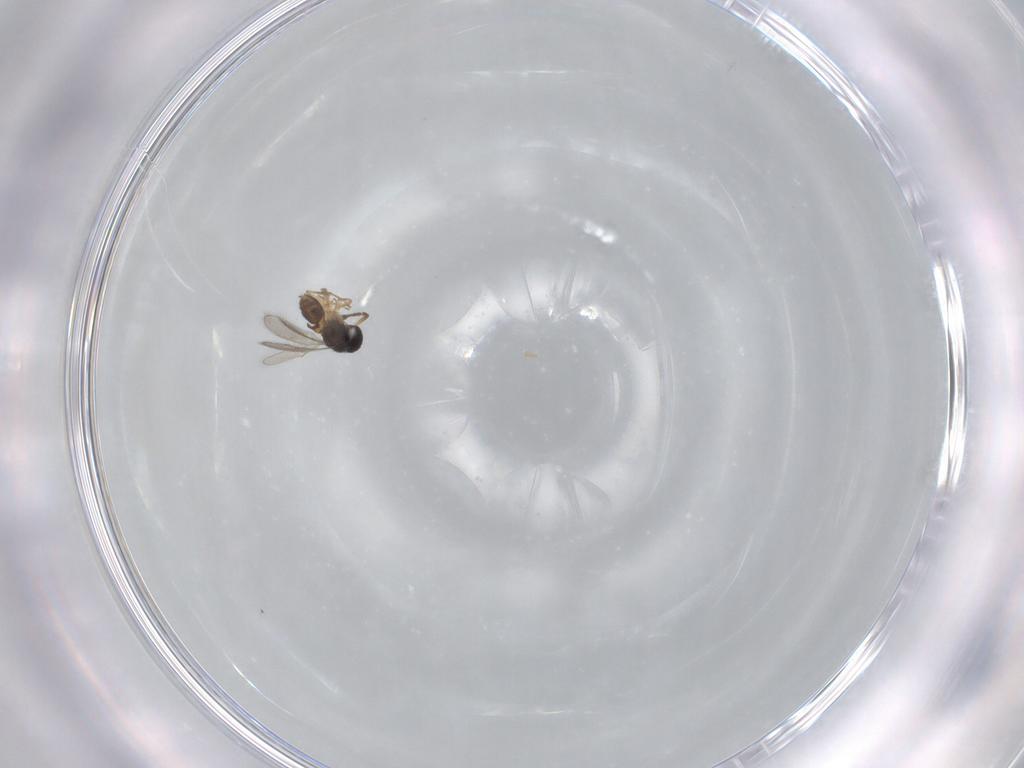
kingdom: Animalia
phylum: Arthropoda
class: Insecta
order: Hymenoptera
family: Scelionidae
